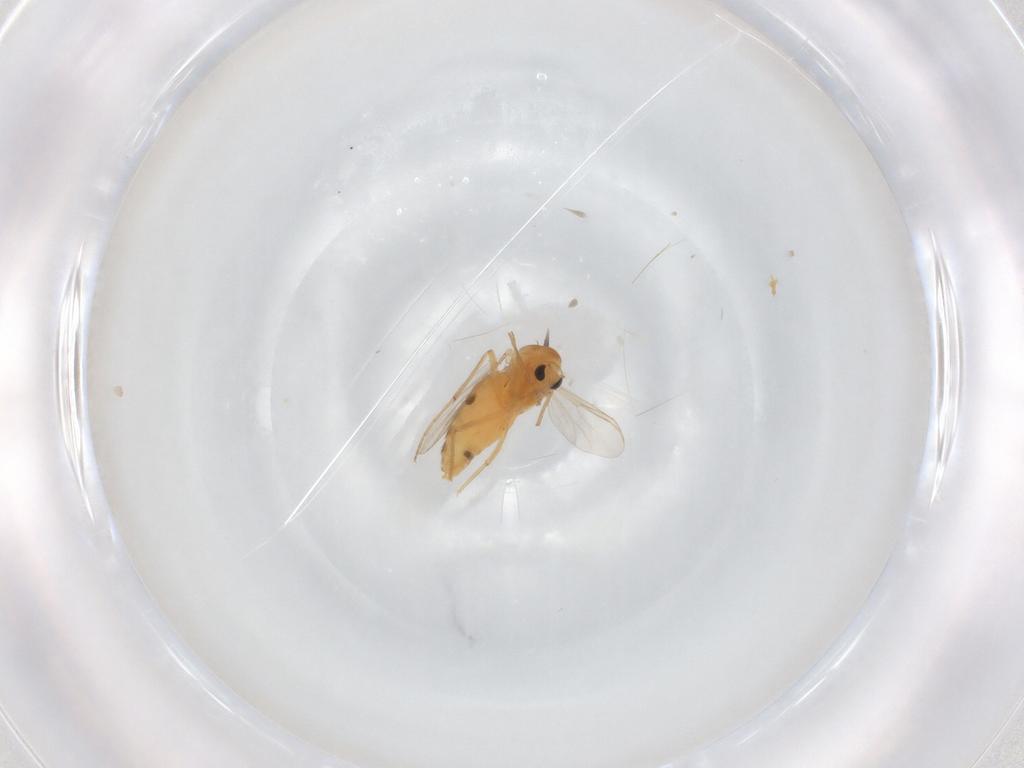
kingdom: Animalia
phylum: Arthropoda
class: Insecta
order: Diptera
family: Chironomidae
